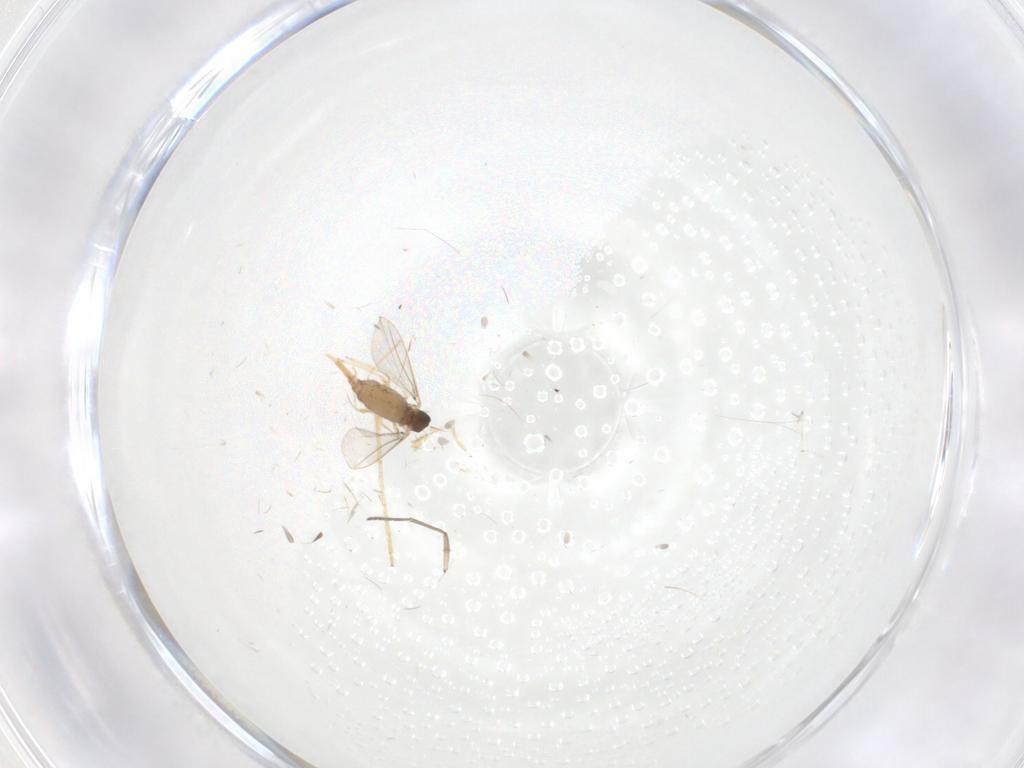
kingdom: Animalia
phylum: Arthropoda
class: Insecta
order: Diptera
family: Cecidomyiidae
